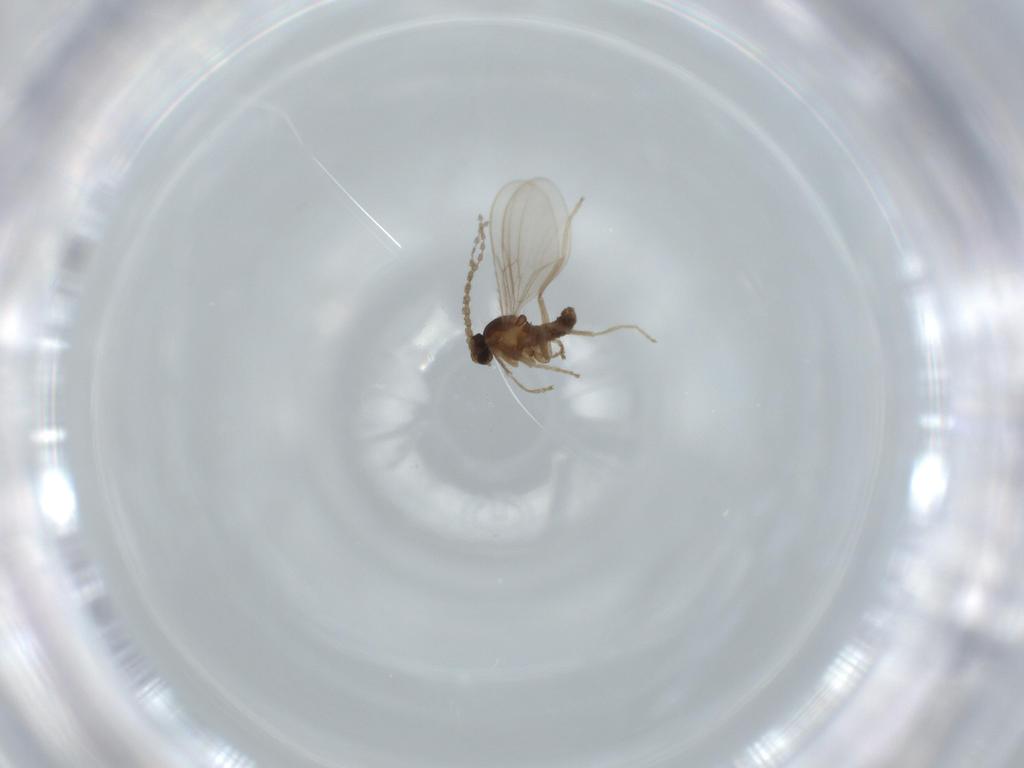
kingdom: Animalia
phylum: Arthropoda
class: Insecta
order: Diptera
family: Cecidomyiidae
